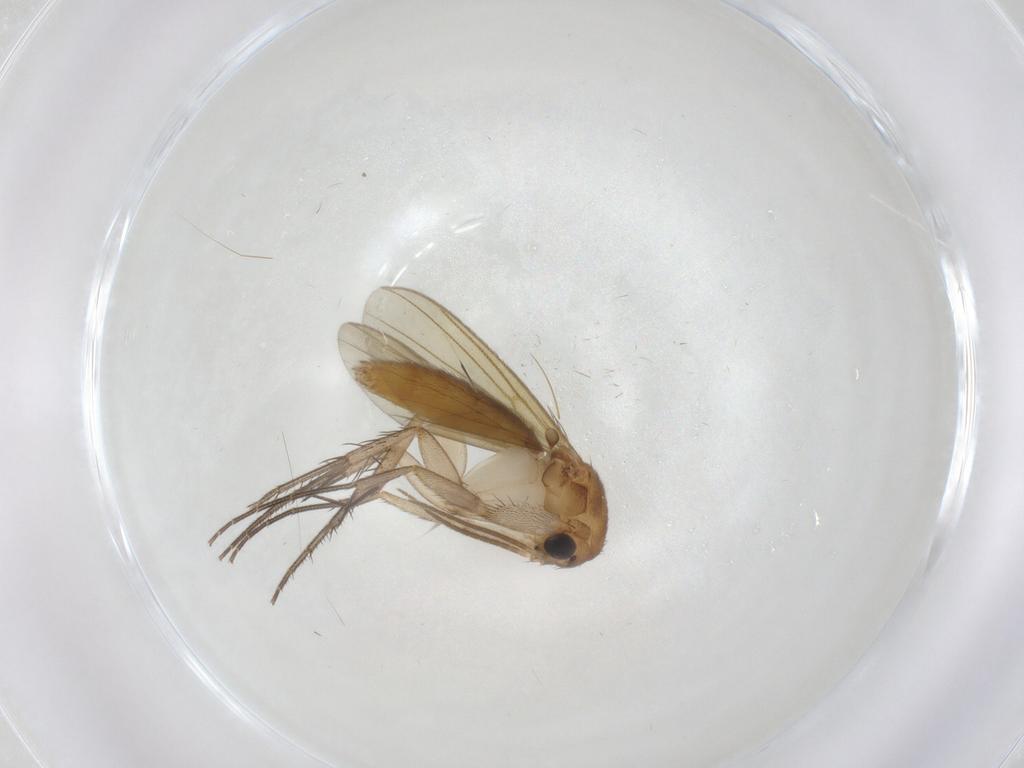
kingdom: Animalia
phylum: Arthropoda
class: Insecta
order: Diptera
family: Mycetophilidae
